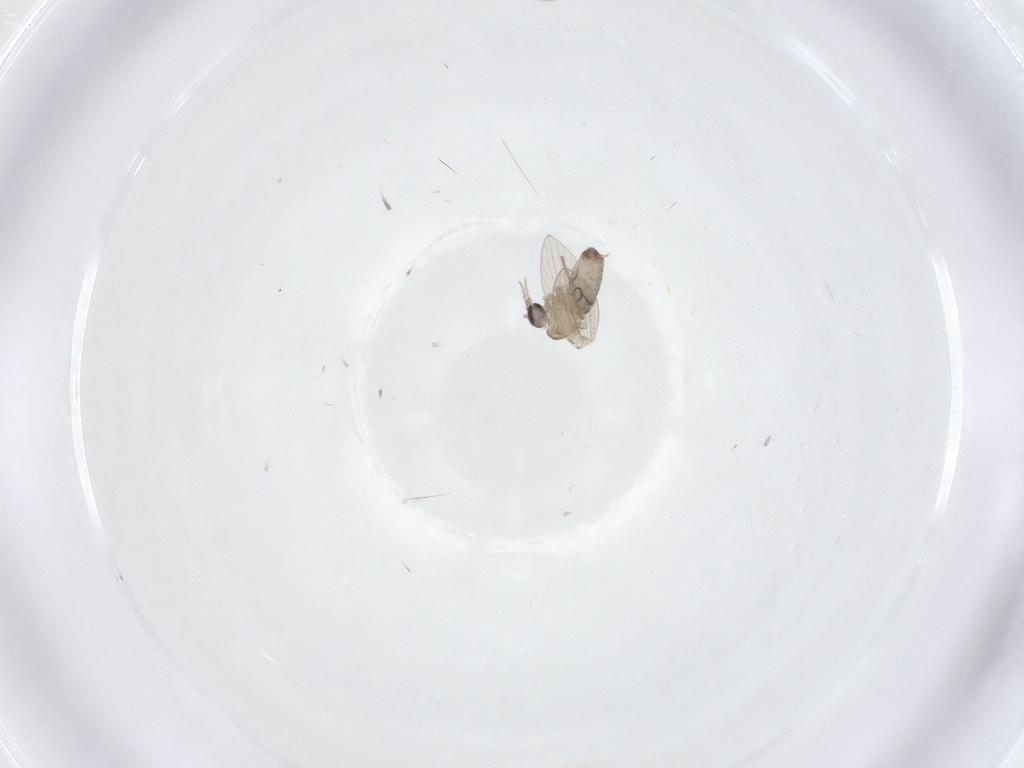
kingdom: Animalia
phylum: Arthropoda
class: Insecta
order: Diptera
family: Psychodidae
